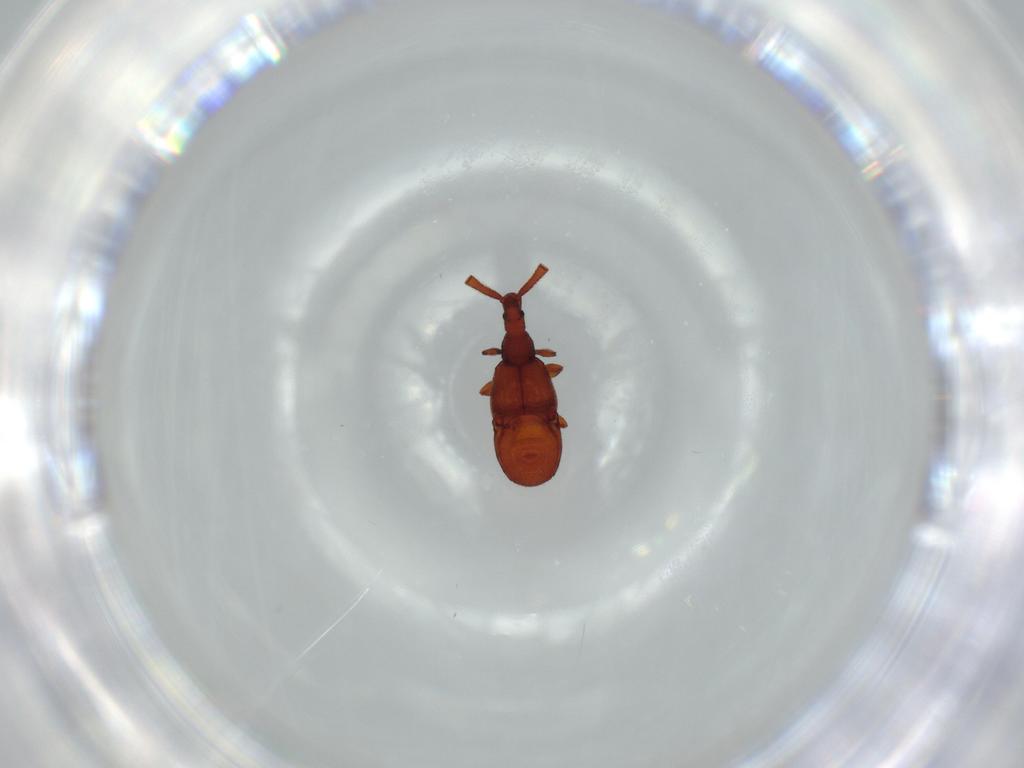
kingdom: Animalia
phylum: Arthropoda
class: Insecta
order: Coleoptera
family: Staphylinidae
